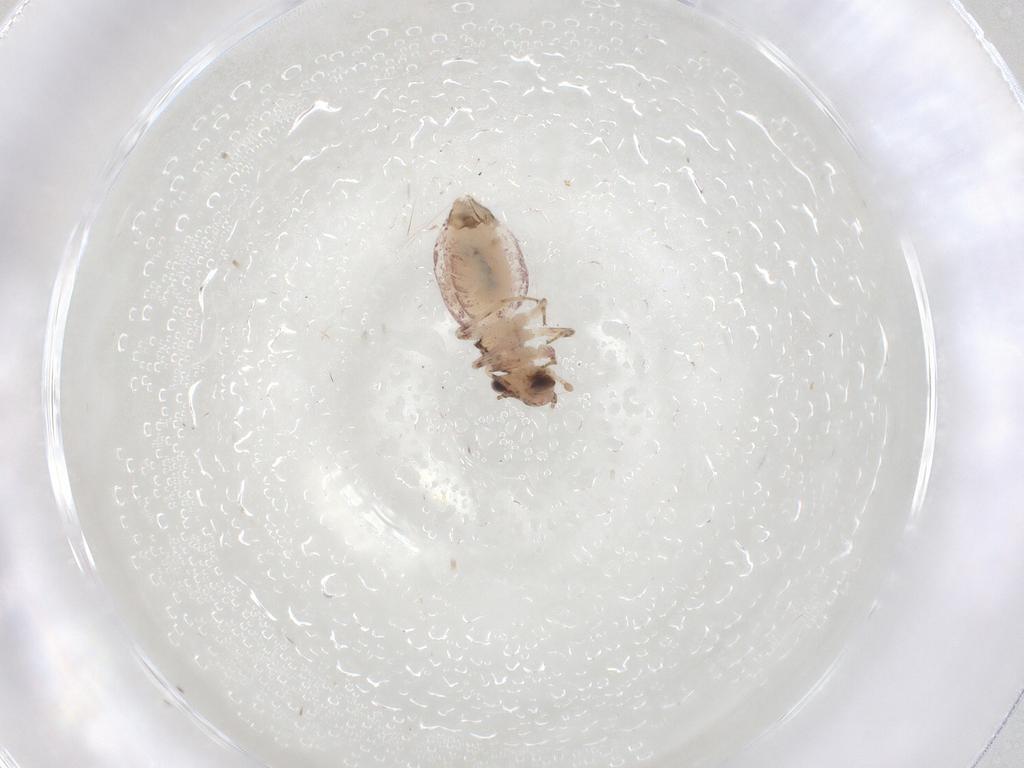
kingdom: Animalia
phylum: Arthropoda
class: Insecta
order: Psocodea
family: Trogiidae
